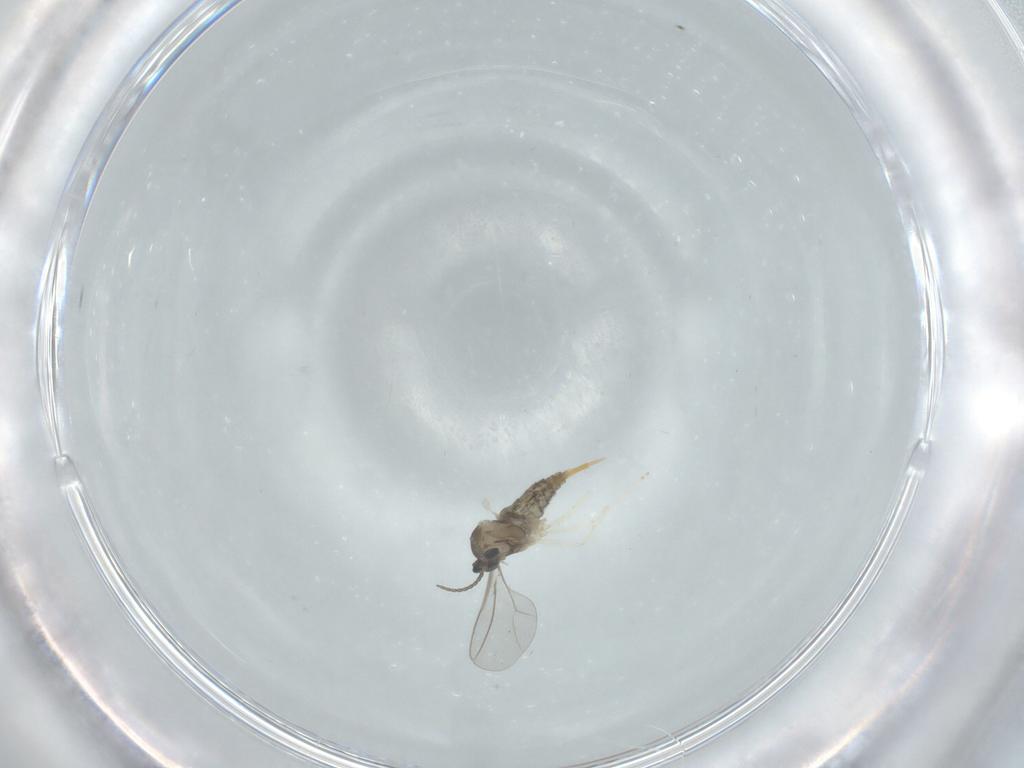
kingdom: Animalia
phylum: Arthropoda
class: Insecta
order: Diptera
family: Cecidomyiidae
